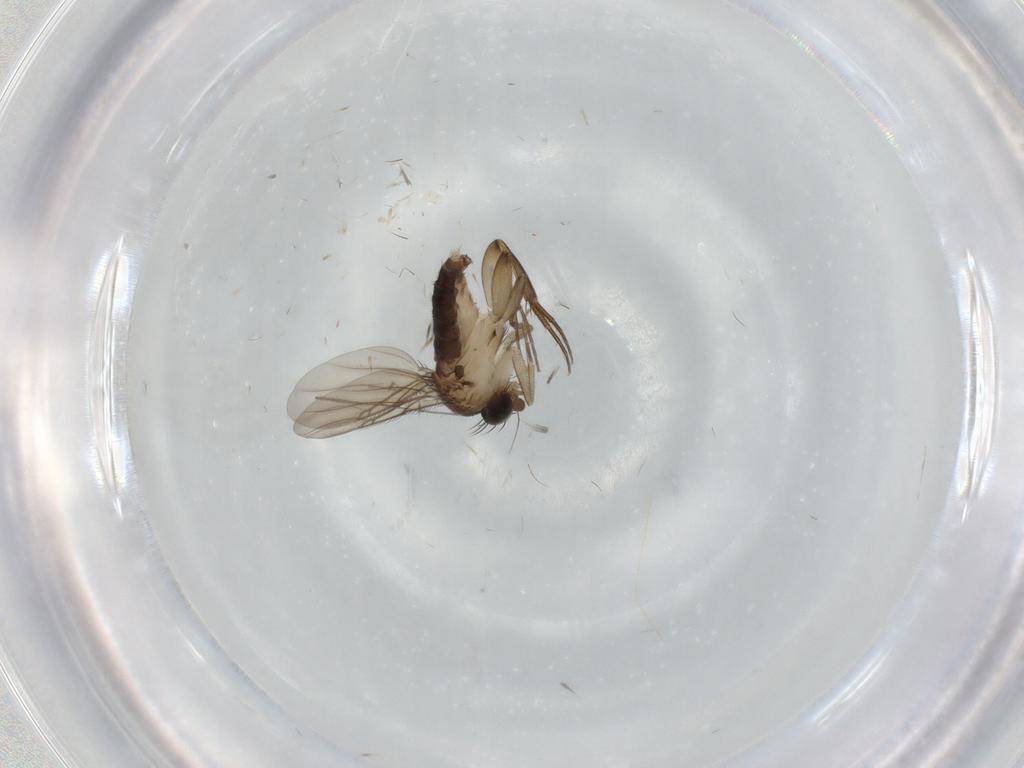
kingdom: Animalia
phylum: Arthropoda
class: Insecta
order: Diptera
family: Phoridae
